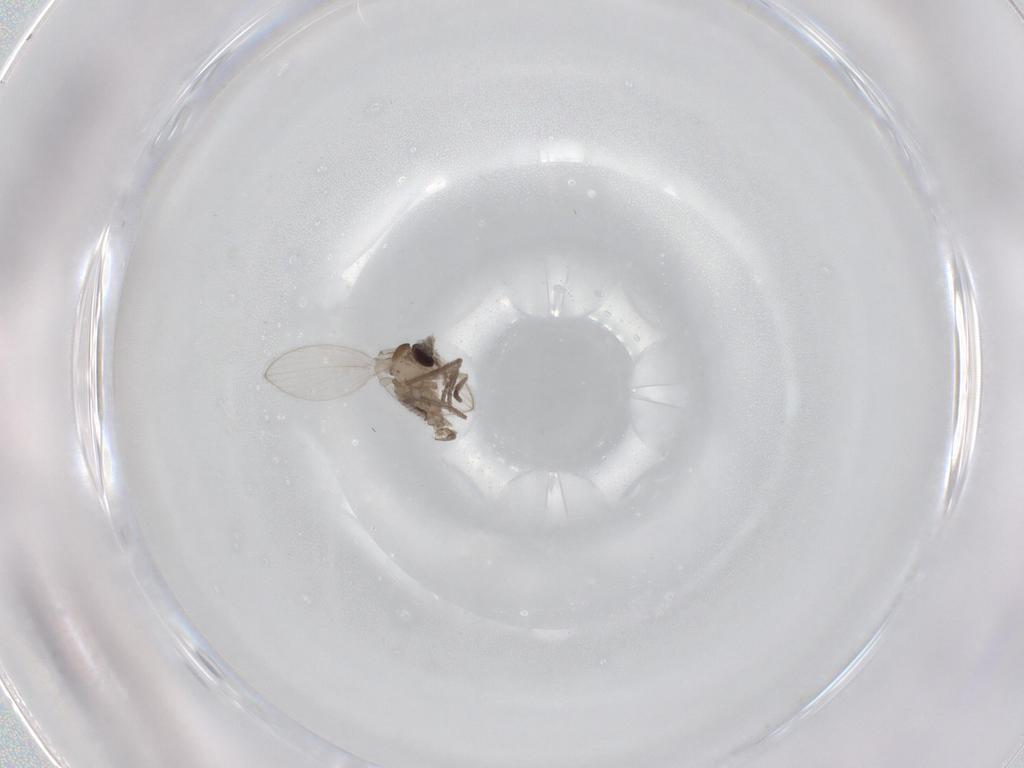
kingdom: Animalia
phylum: Arthropoda
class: Insecta
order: Diptera
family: Psychodidae
